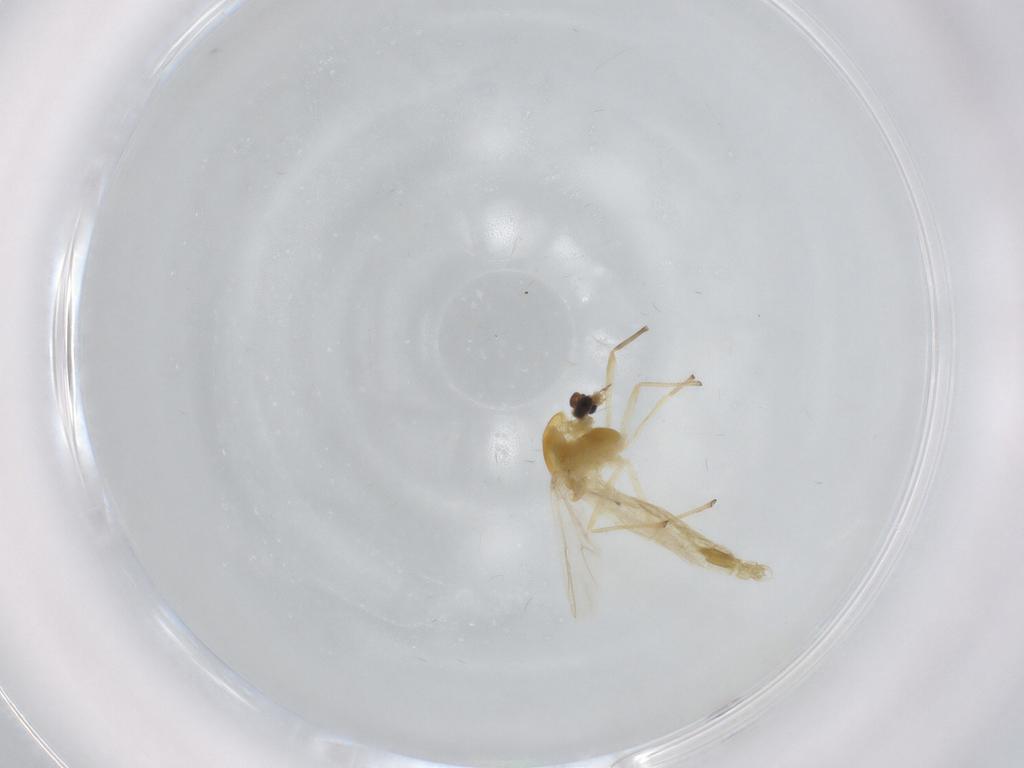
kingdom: Animalia
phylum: Arthropoda
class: Insecta
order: Diptera
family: Chironomidae
